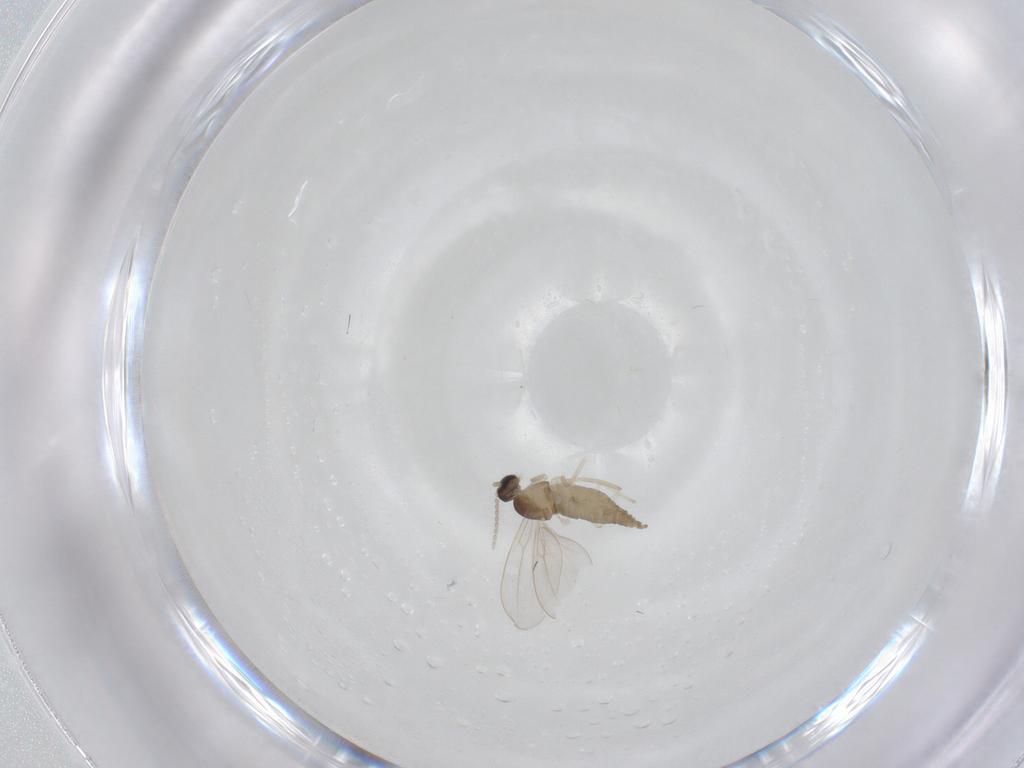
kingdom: Animalia
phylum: Arthropoda
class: Insecta
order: Diptera
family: Cecidomyiidae
